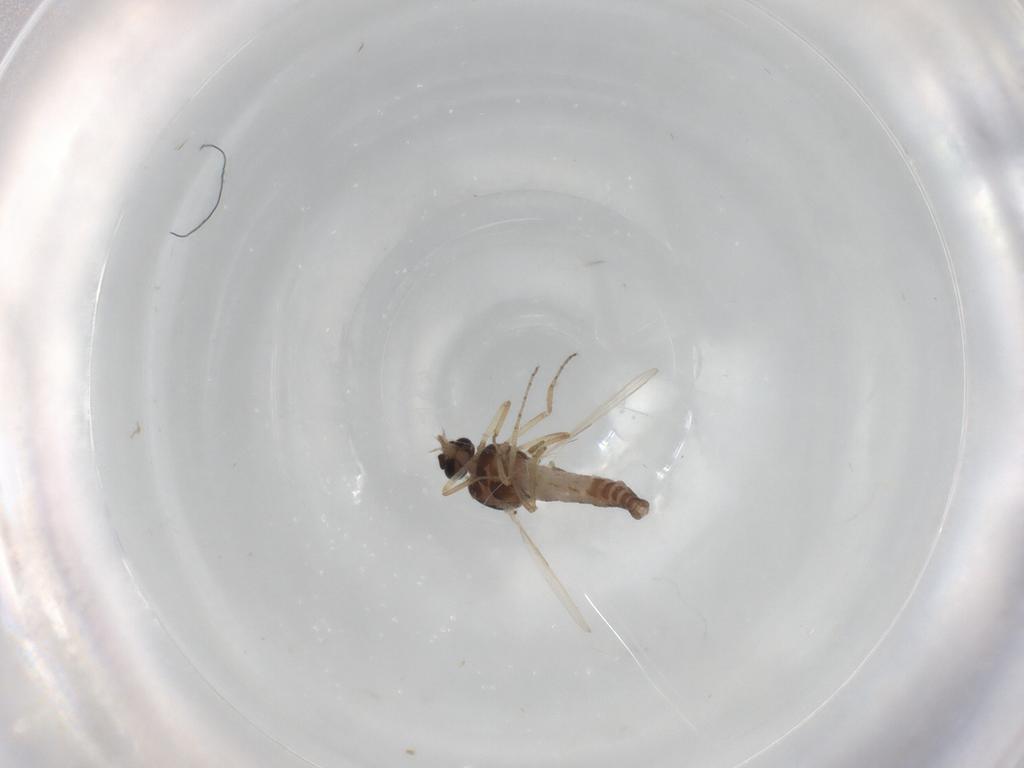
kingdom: Animalia
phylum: Arthropoda
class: Insecta
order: Diptera
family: Ceratopogonidae
